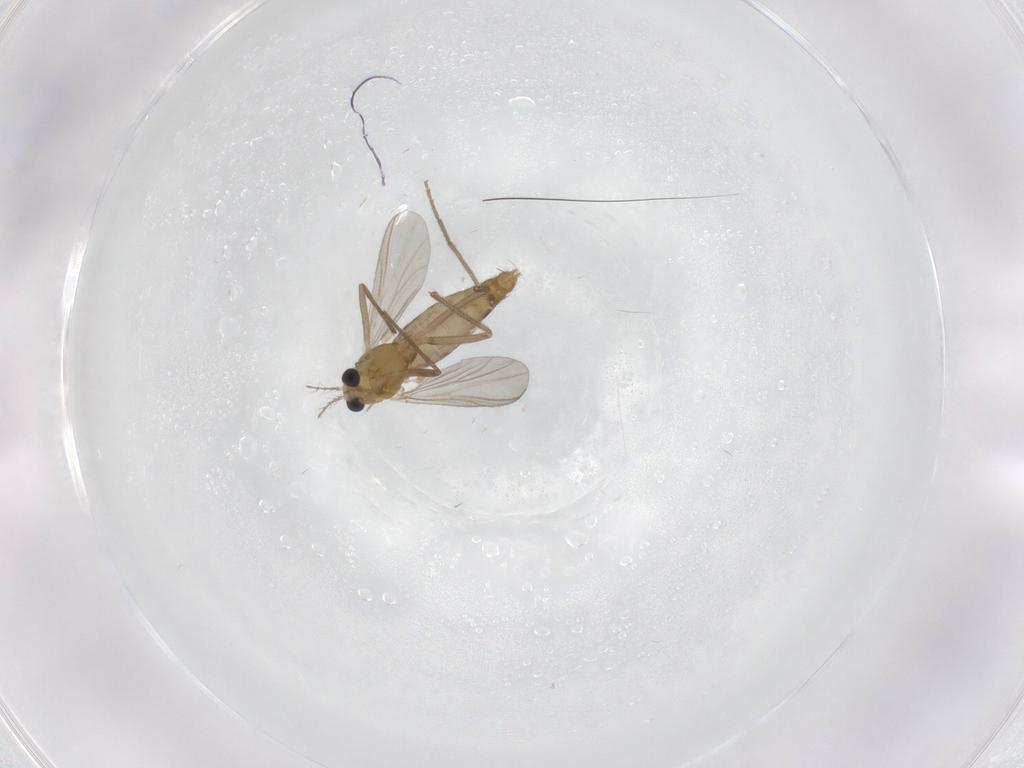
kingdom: Animalia
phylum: Arthropoda
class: Insecta
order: Diptera
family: Chironomidae
